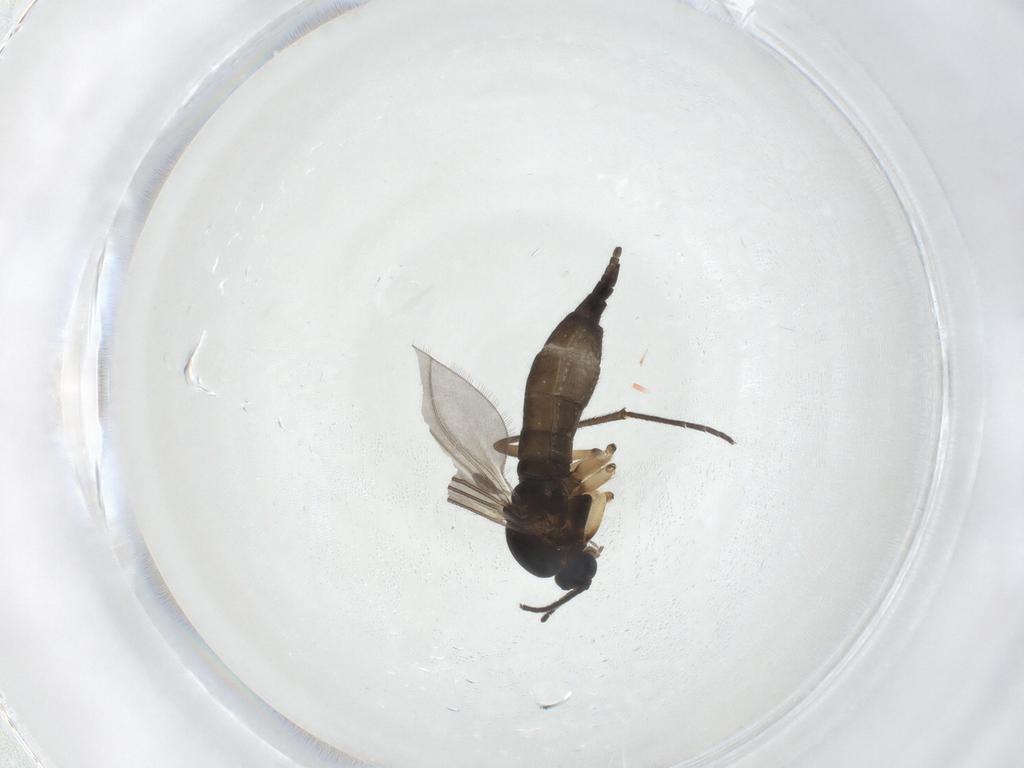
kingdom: Animalia
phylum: Arthropoda
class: Insecta
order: Diptera
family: Sciaridae
